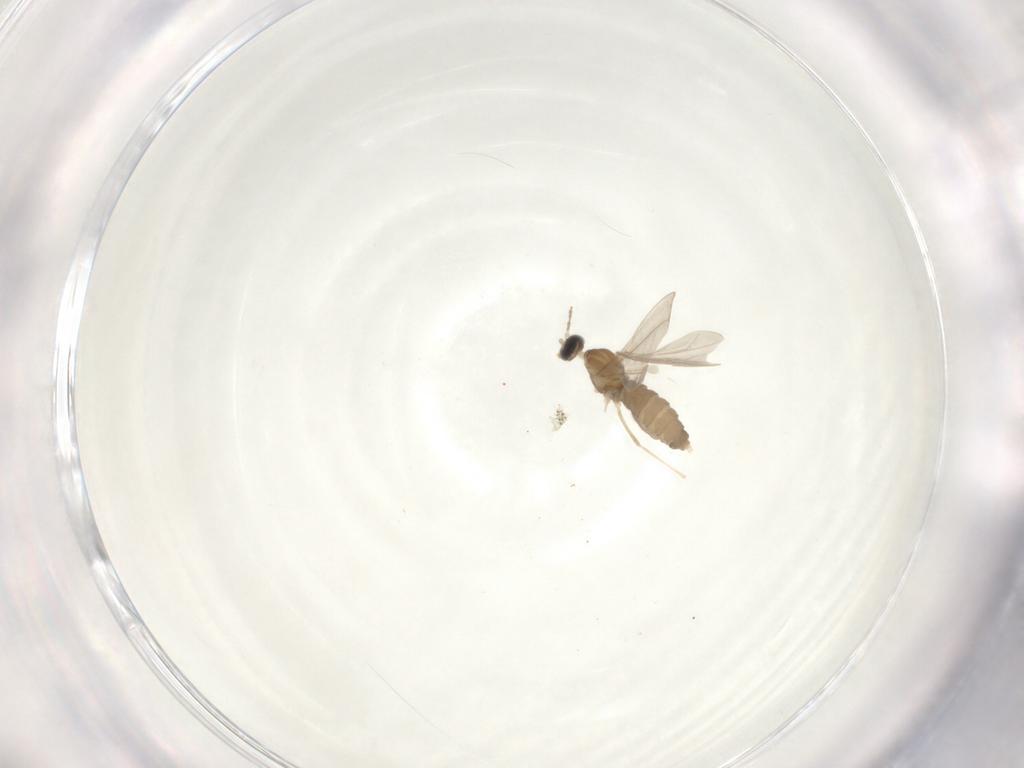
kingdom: Animalia
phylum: Arthropoda
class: Insecta
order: Diptera
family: Cecidomyiidae
